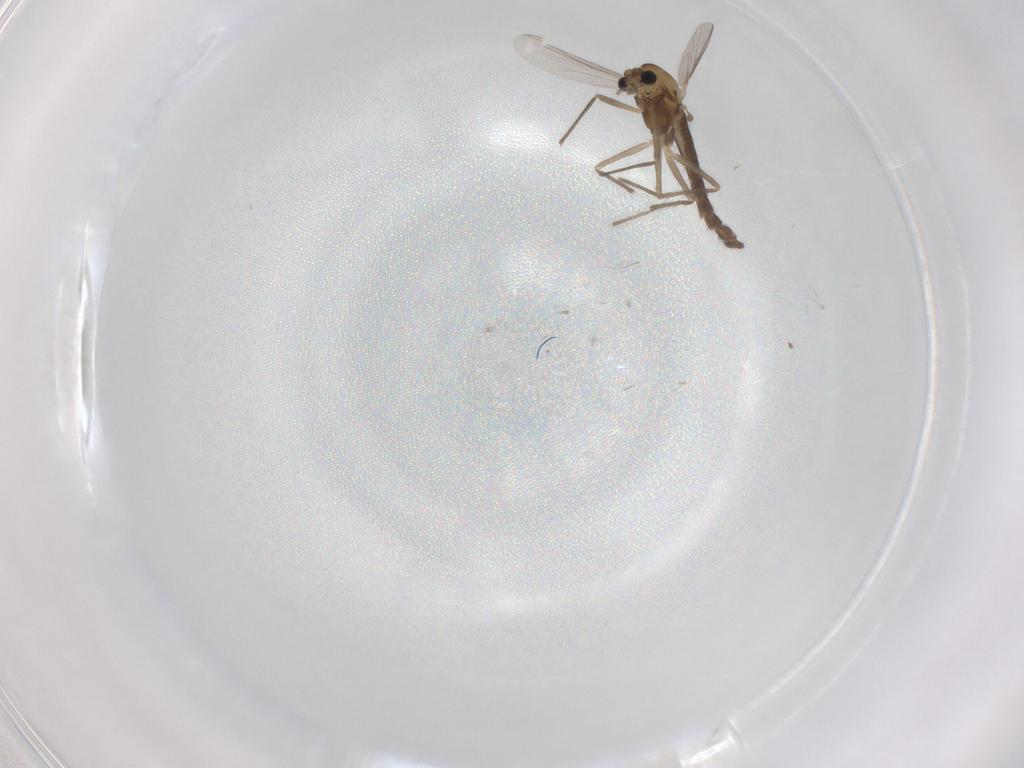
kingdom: Animalia
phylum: Arthropoda
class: Insecta
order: Diptera
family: Chironomidae
